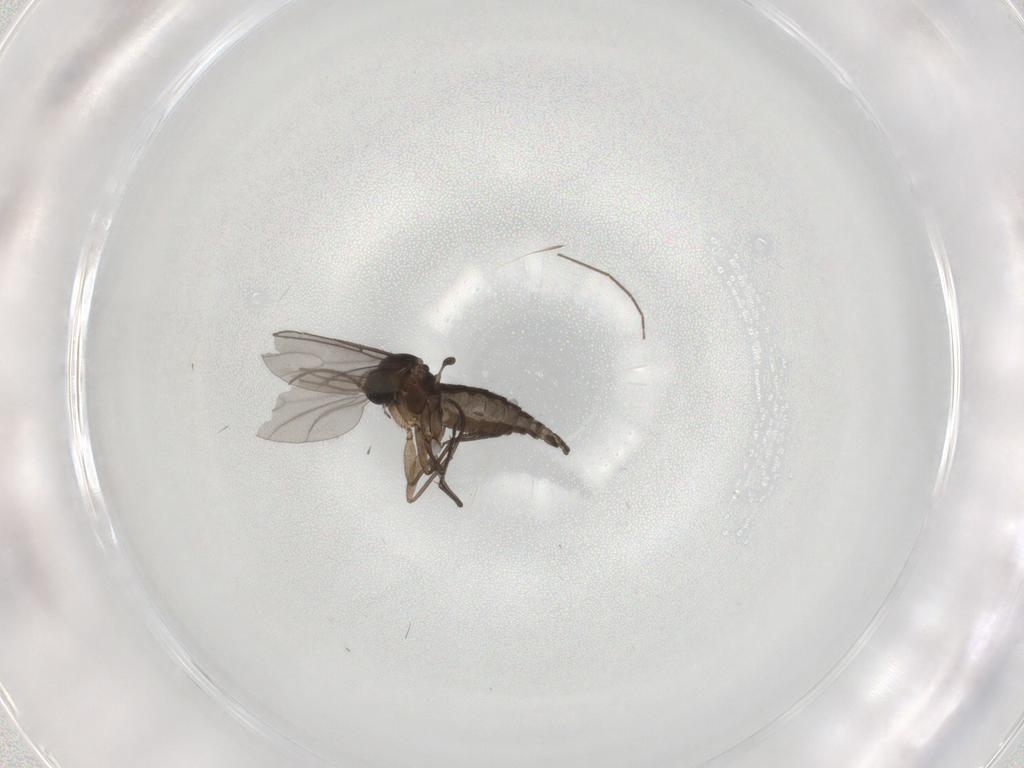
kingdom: Animalia
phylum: Arthropoda
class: Insecta
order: Diptera
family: Sciaridae
